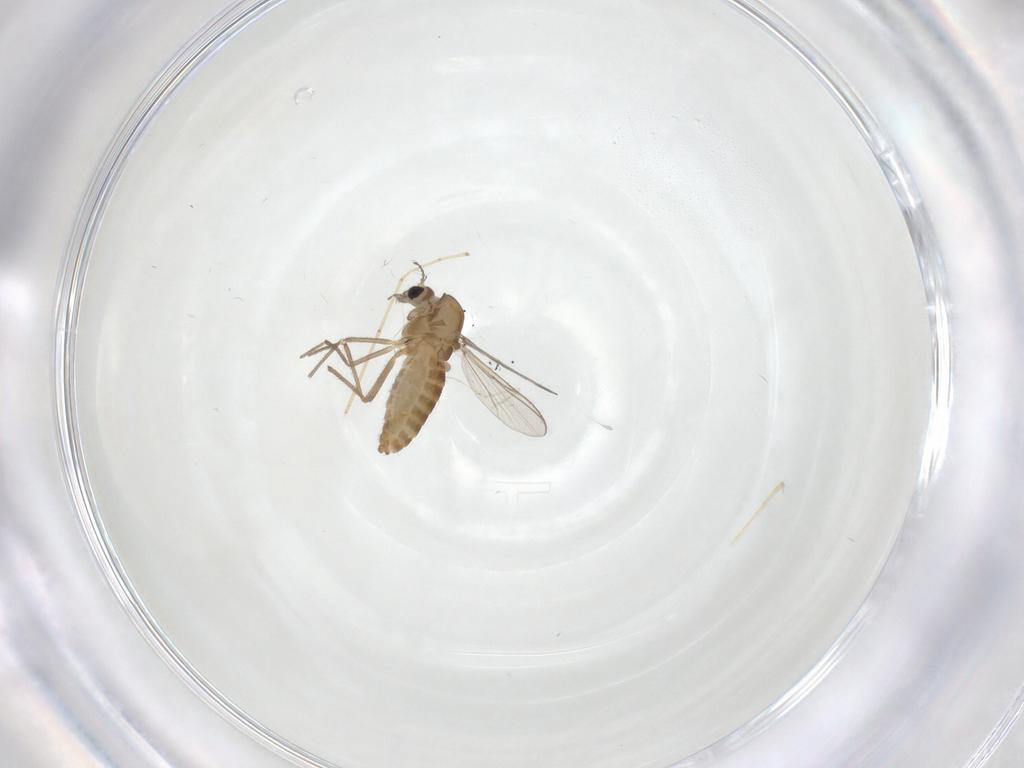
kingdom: Animalia
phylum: Arthropoda
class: Insecta
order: Diptera
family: Chironomidae
